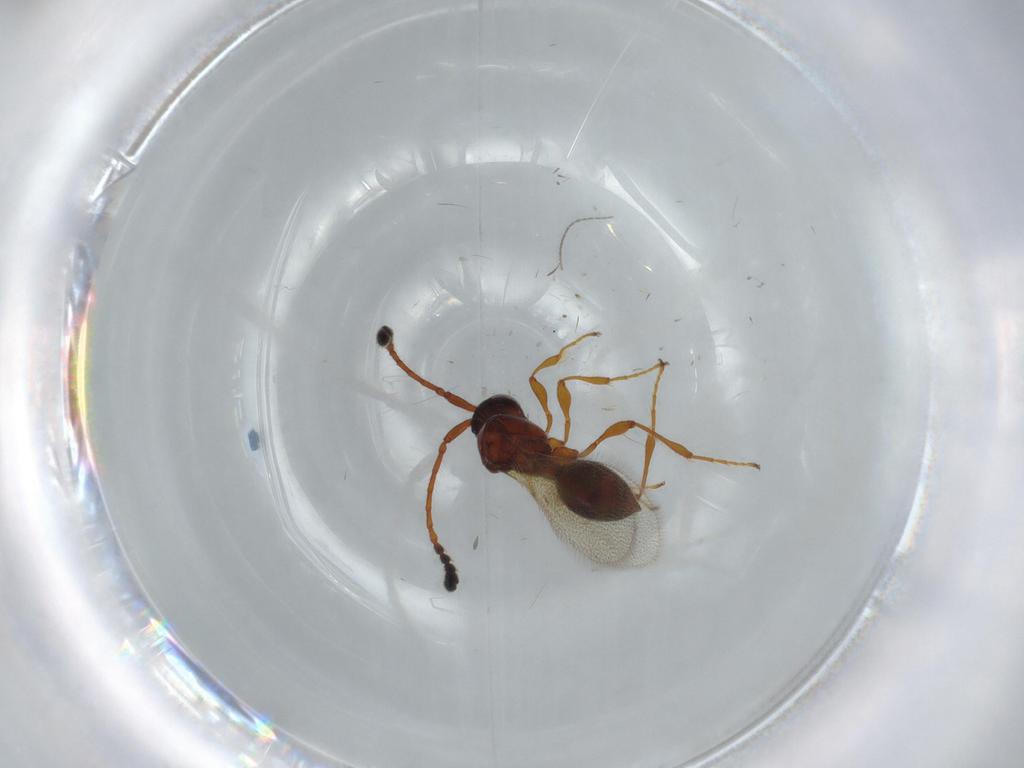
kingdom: Animalia
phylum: Arthropoda
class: Insecta
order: Hymenoptera
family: Diapriidae
